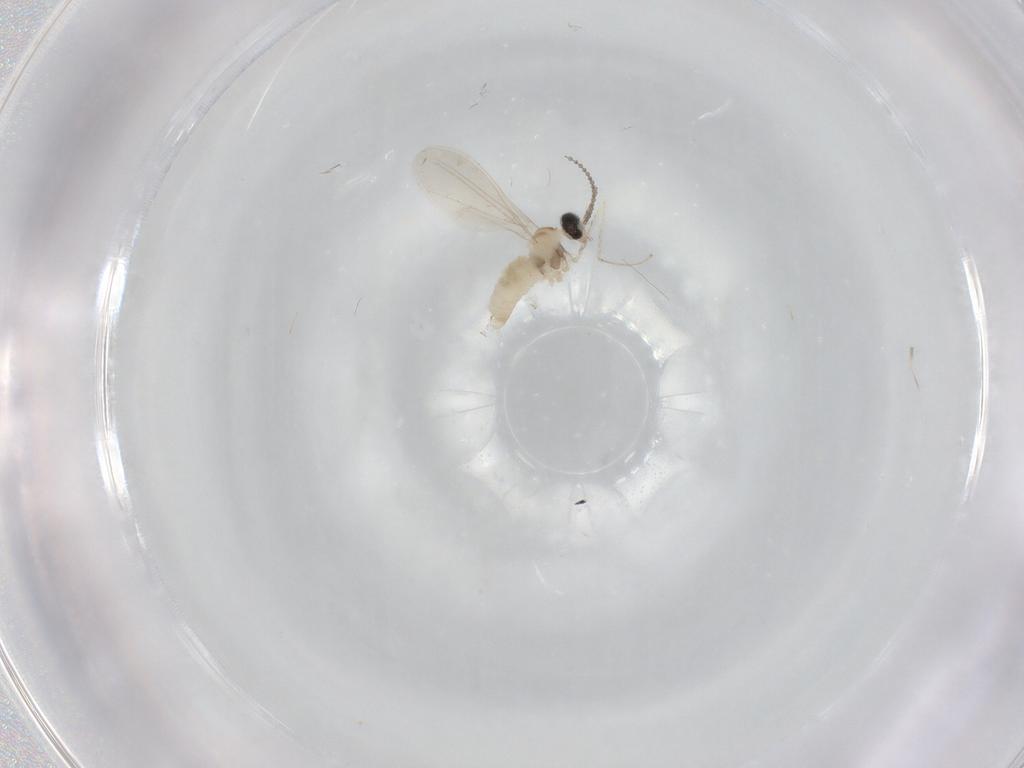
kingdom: Animalia
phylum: Arthropoda
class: Insecta
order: Diptera
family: Cecidomyiidae
